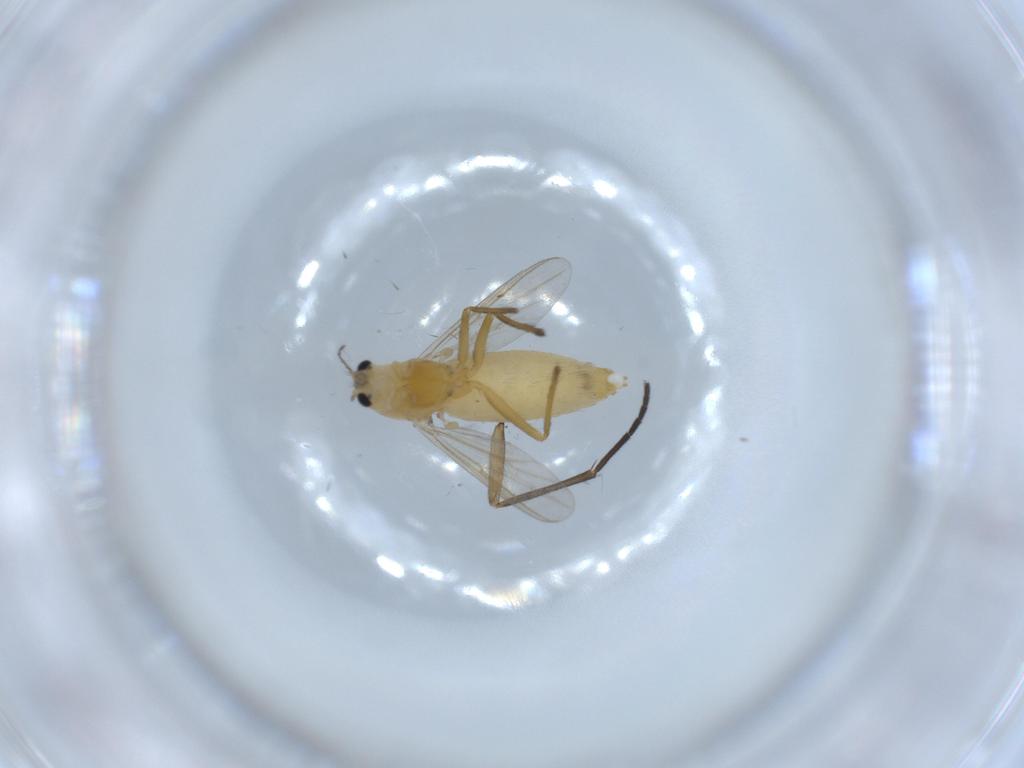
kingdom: Animalia
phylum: Arthropoda
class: Insecta
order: Diptera
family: Chironomidae
